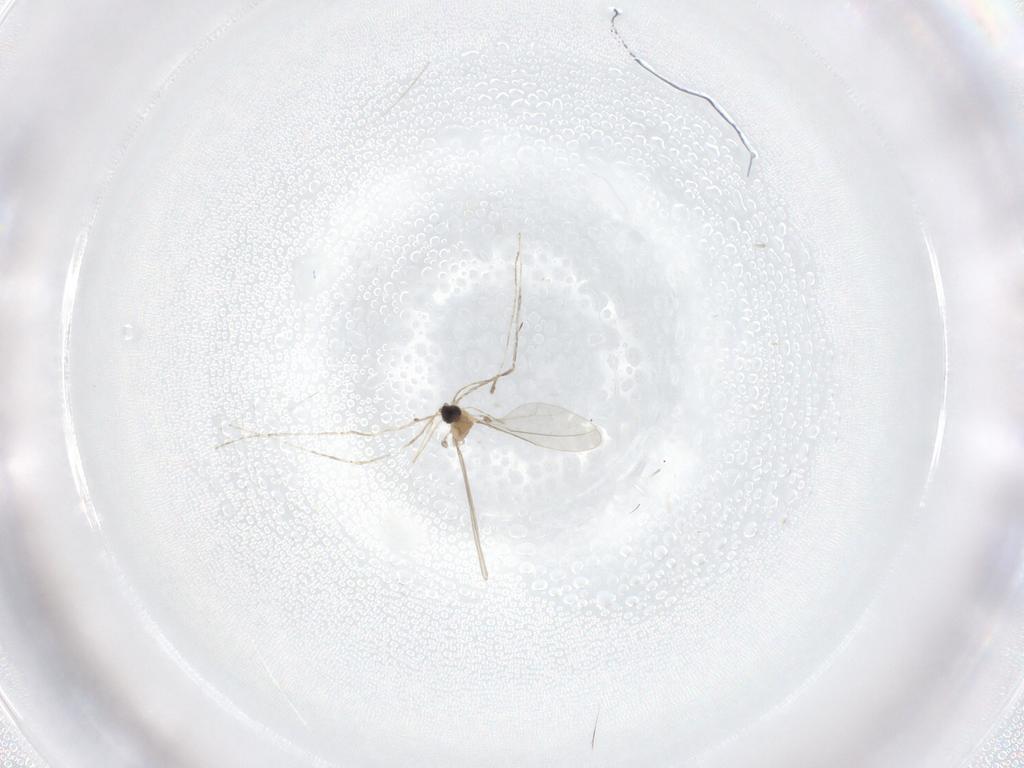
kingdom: Animalia
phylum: Arthropoda
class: Insecta
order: Diptera
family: Cecidomyiidae
